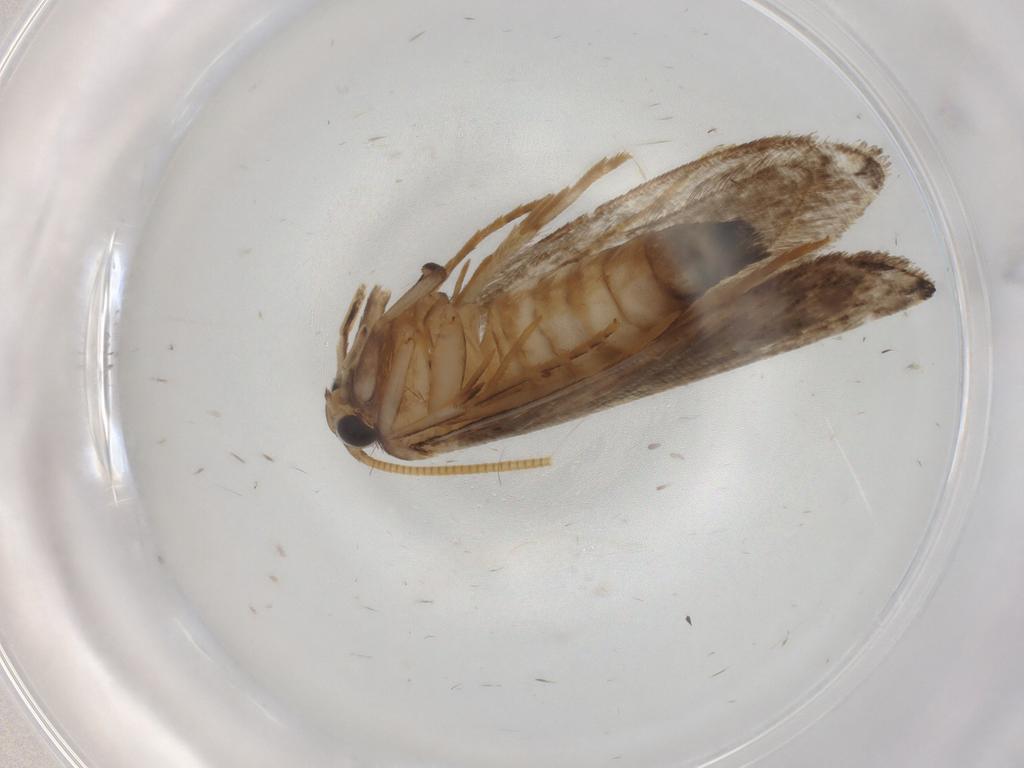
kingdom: Animalia
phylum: Arthropoda
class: Insecta
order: Lepidoptera
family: Tineidae
